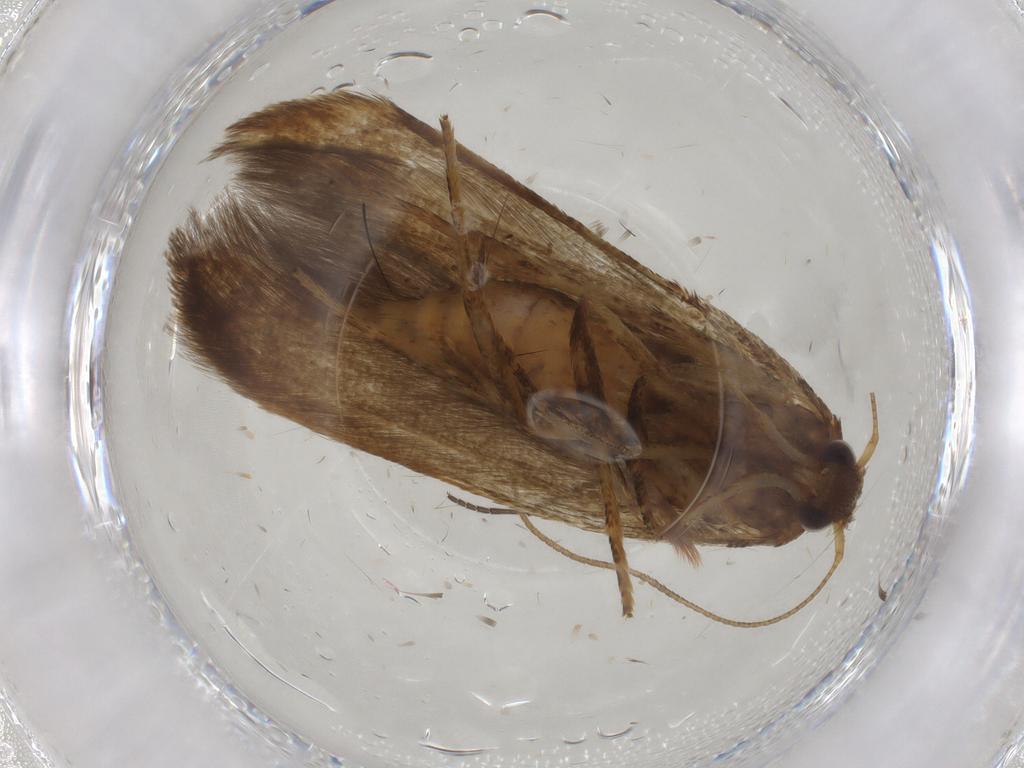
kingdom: Animalia
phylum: Arthropoda
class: Insecta
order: Lepidoptera
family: Blastobasidae
